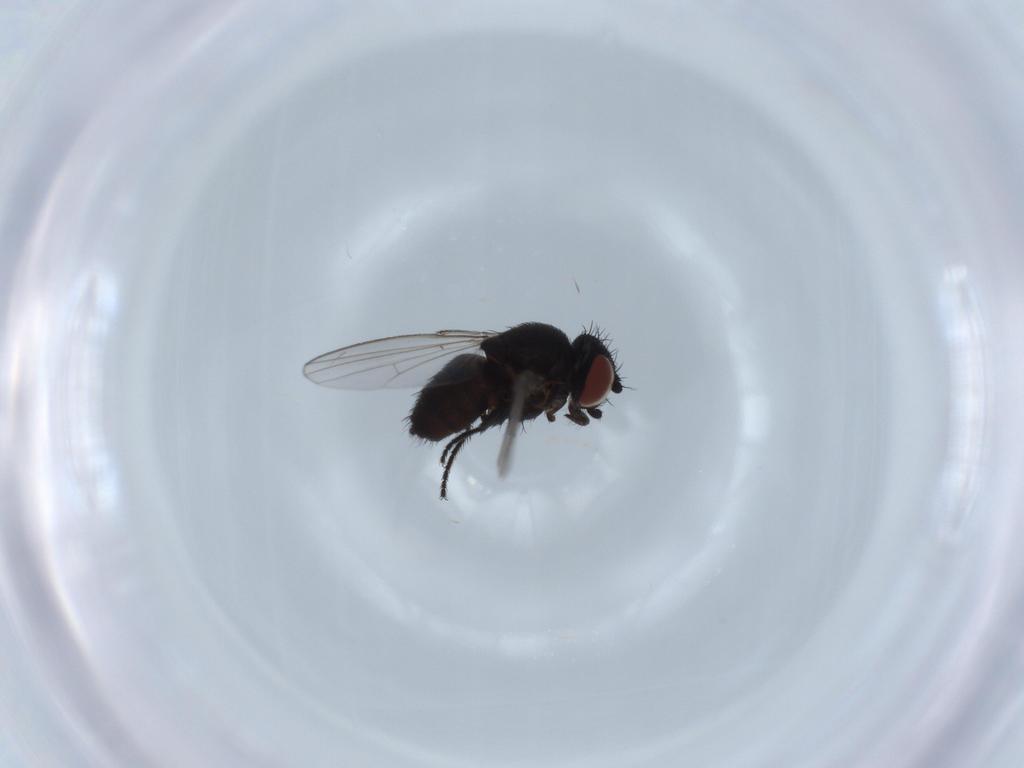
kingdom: Animalia
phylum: Arthropoda
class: Insecta
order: Diptera
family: Milichiidae
